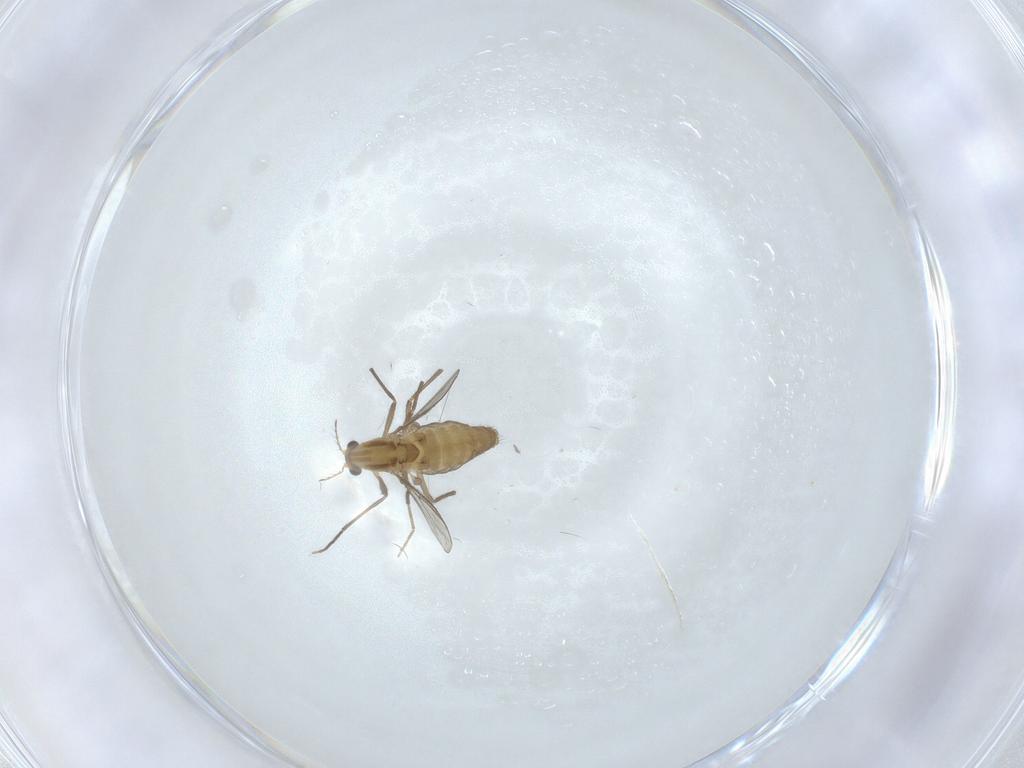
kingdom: Animalia
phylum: Arthropoda
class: Insecta
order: Diptera
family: Chironomidae
